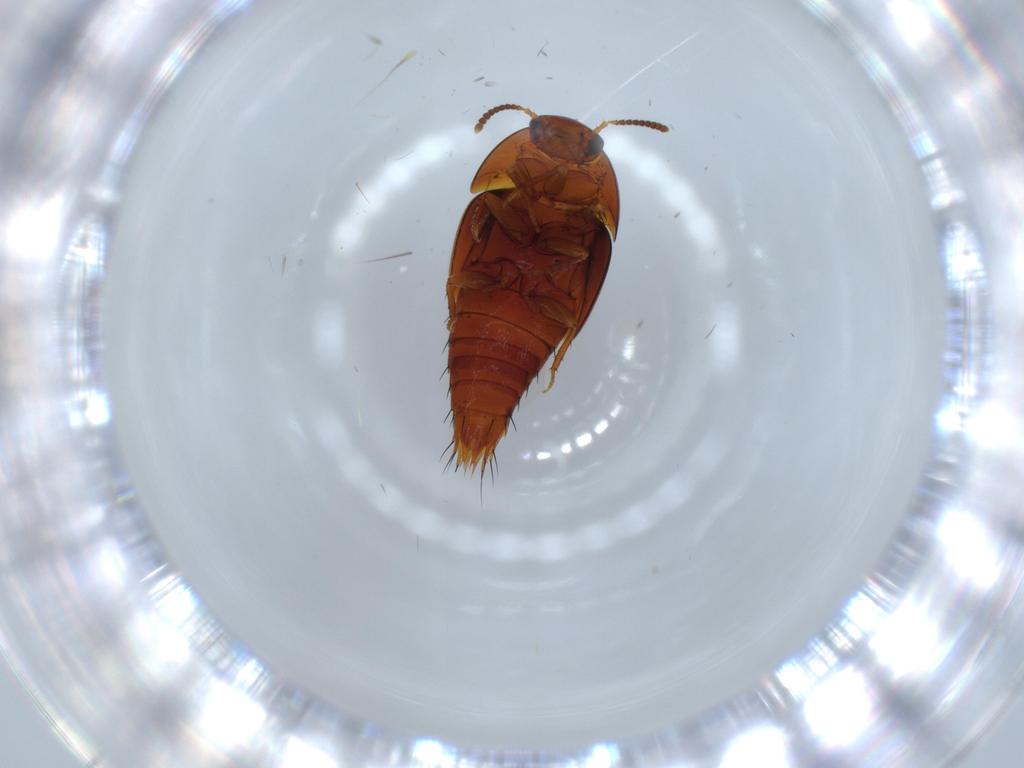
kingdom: Animalia
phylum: Arthropoda
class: Insecta
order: Coleoptera
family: Staphylinidae
